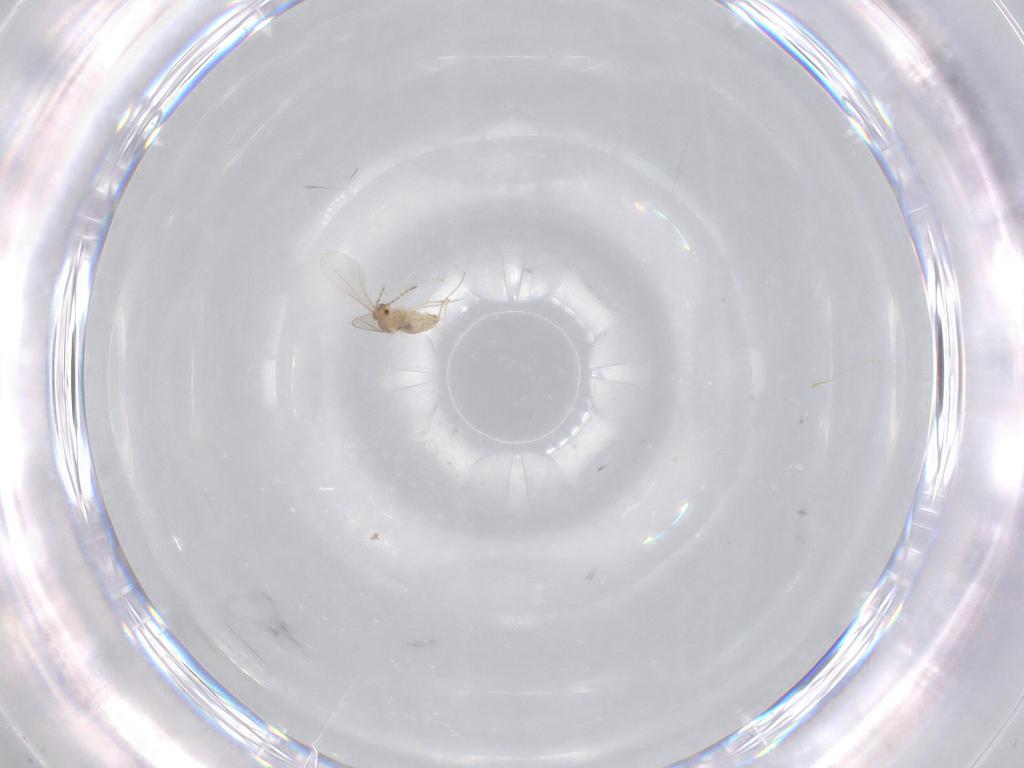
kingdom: Animalia
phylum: Arthropoda
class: Insecta
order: Diptera
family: Cecidomyiidae
